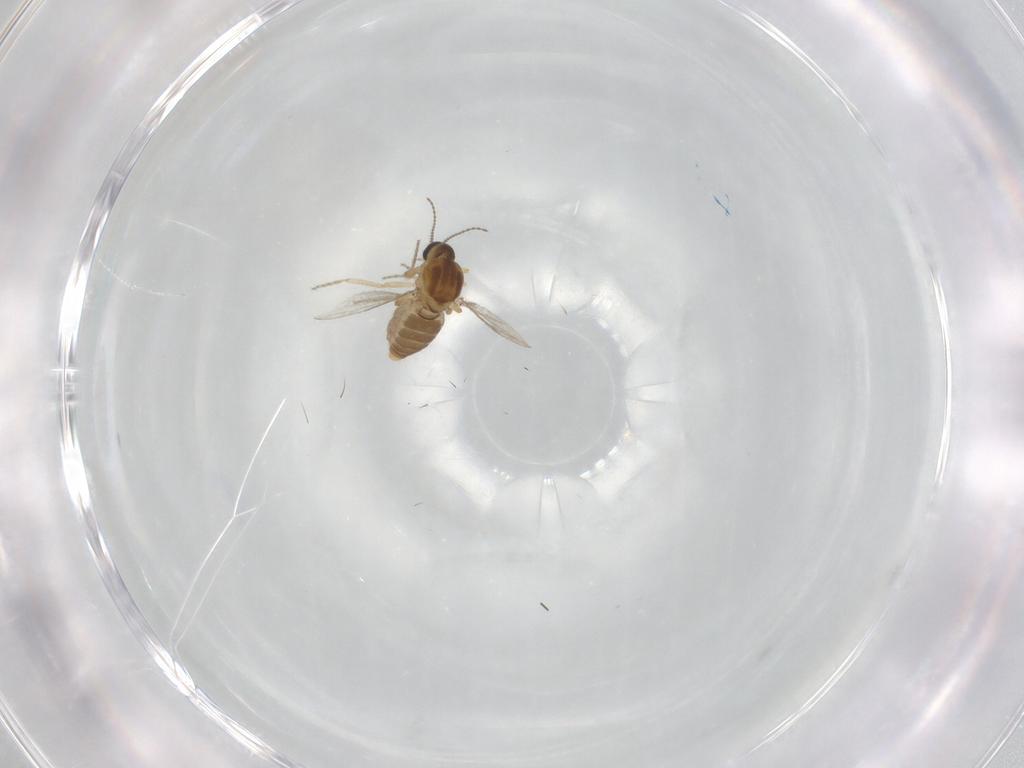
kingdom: Animalia
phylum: Arthropoda
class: Insecta
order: Diptera
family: Ceratopogonidae
